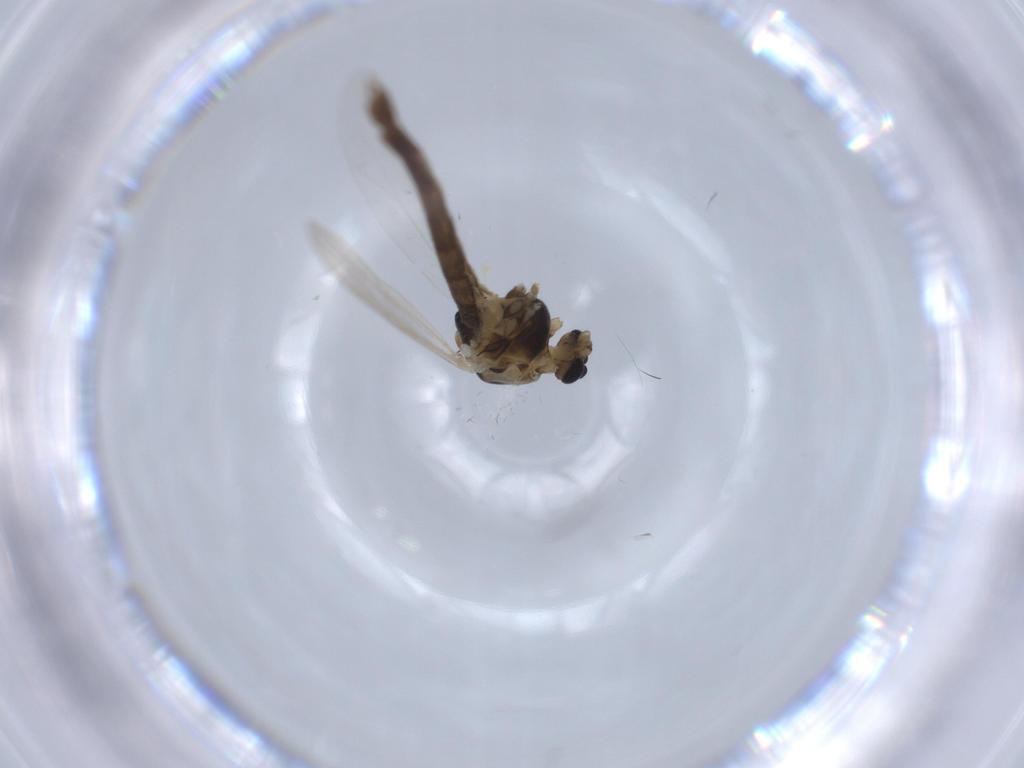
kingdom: Animalia
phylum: Arthropoda
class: Insecta
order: Diptera
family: Chironomidae
